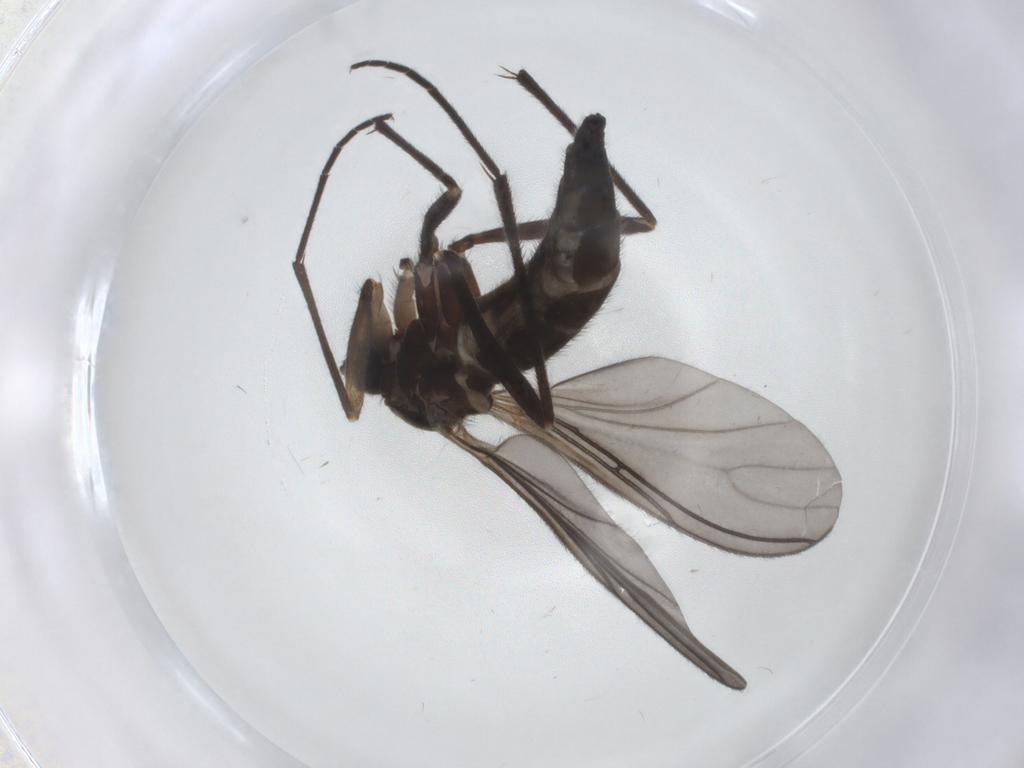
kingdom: Animalia
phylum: Arthropoda
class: Insecta
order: Diptera
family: Sciaridae
